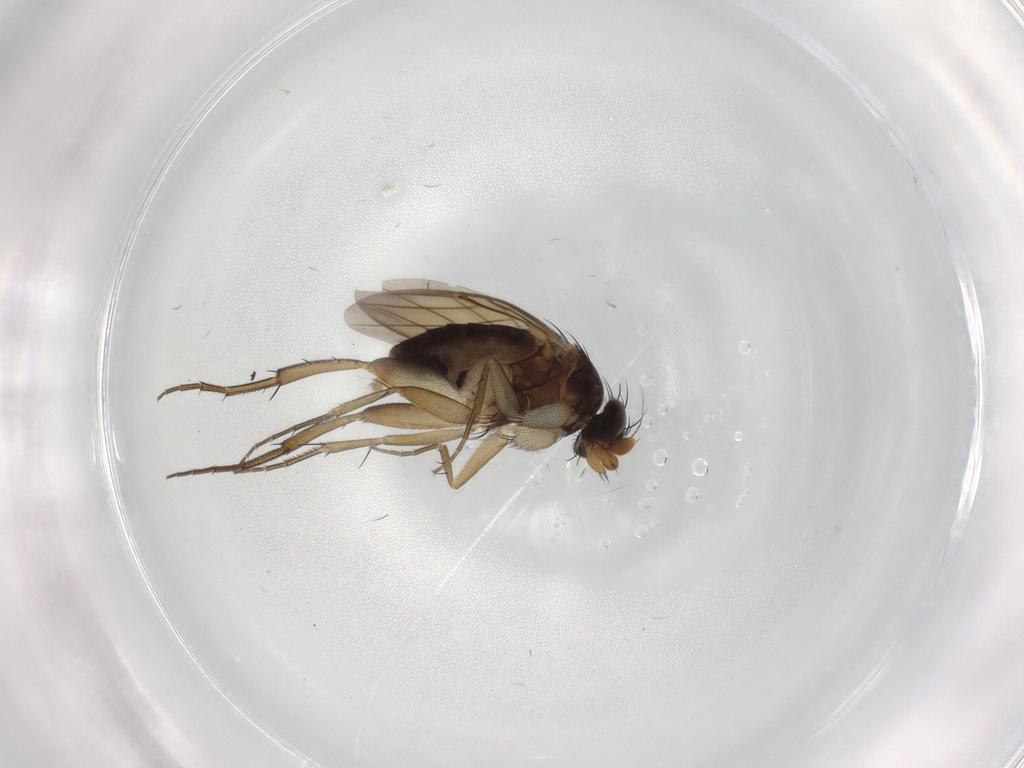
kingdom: Animalia
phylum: Arthropoda
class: Insecta
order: Diptera
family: Phoridae
